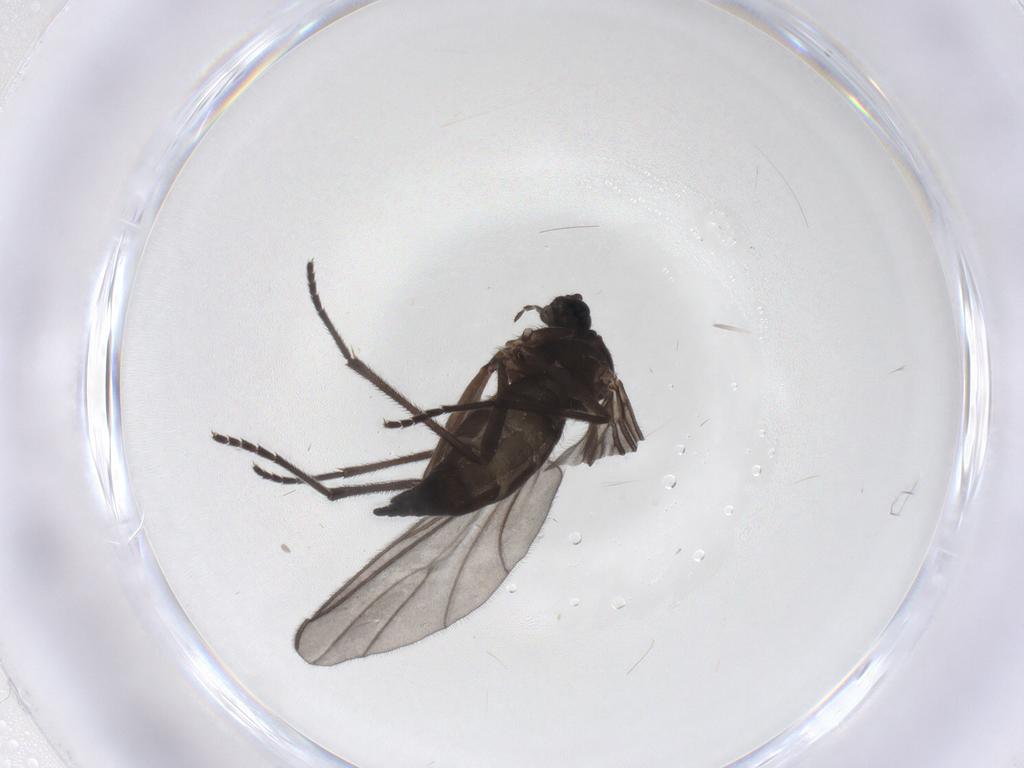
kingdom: Animalia
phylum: Arthropoda
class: Insecta
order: Diptera
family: Sciaridae
